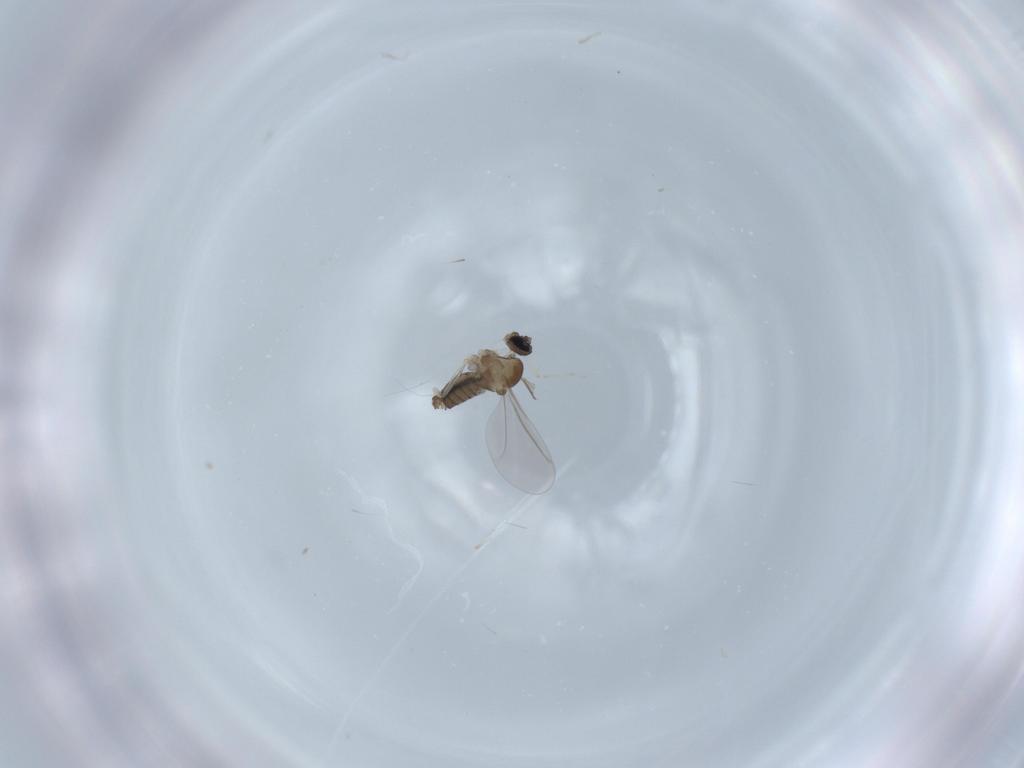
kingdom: Animalia
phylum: Arthropoda
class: Insecta
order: Diptera
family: Cecidomyiidae
